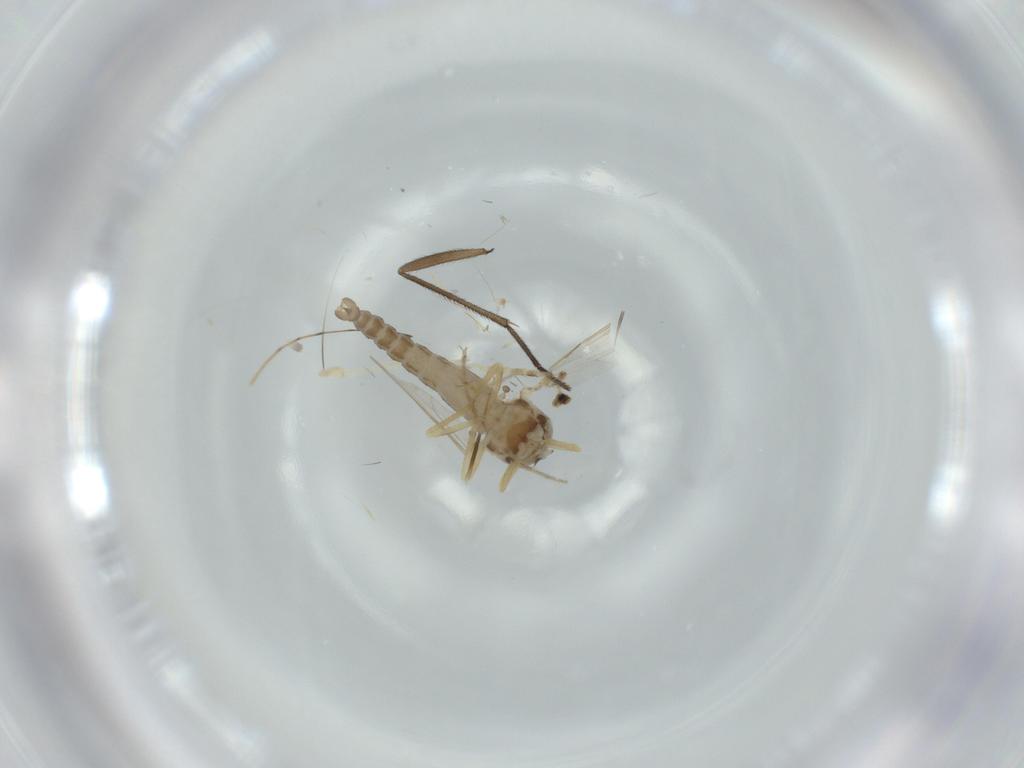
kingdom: Animalia
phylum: Arthropoda
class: Insecta
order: Diptera
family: Ceratopogonidae
